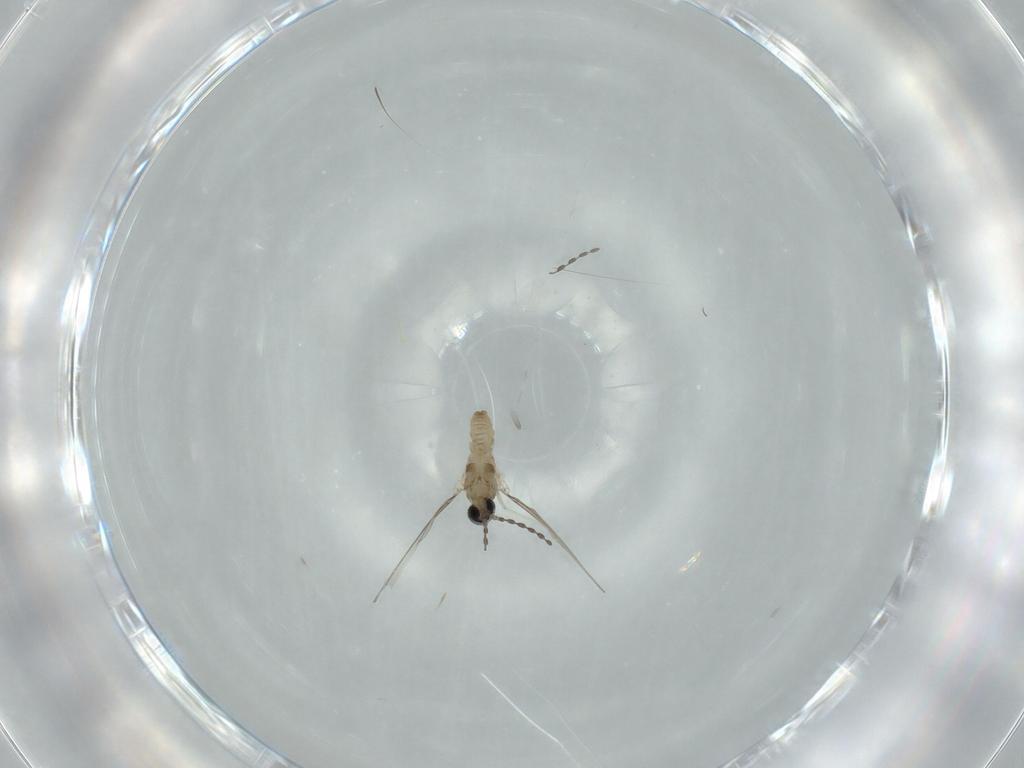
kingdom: Animalia
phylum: Arthropoda
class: Insecta
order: Diptera
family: Cecidomyiidae
